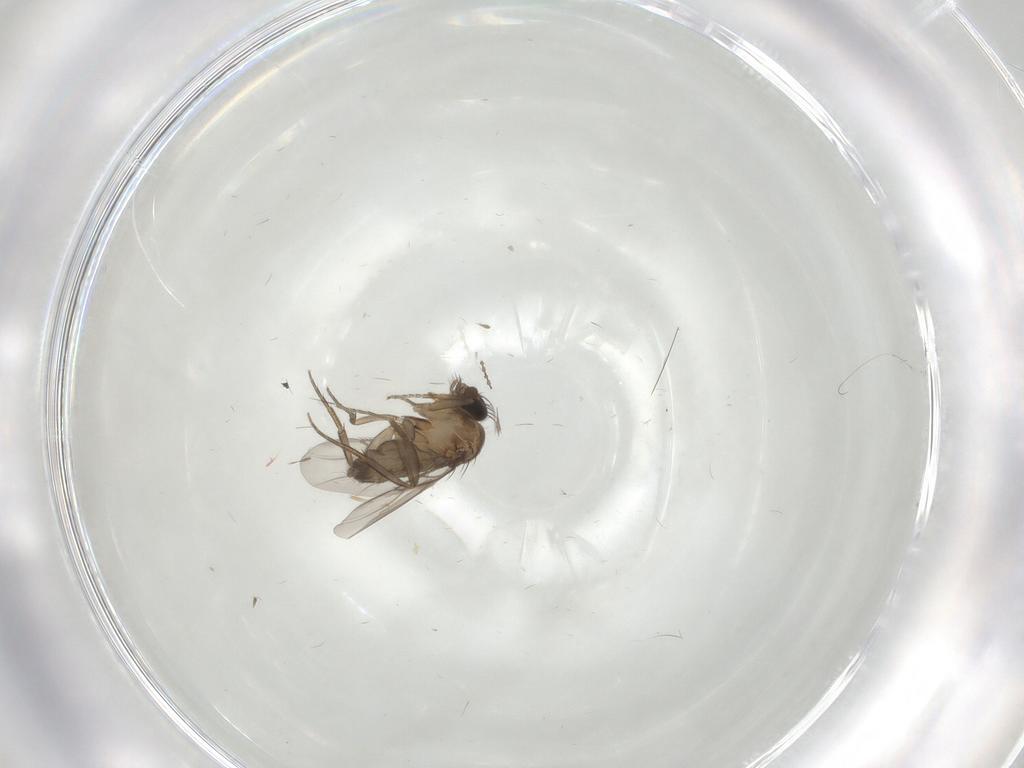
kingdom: Animalia
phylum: Arthropoda
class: Insecta
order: Diptera
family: Phoridae
